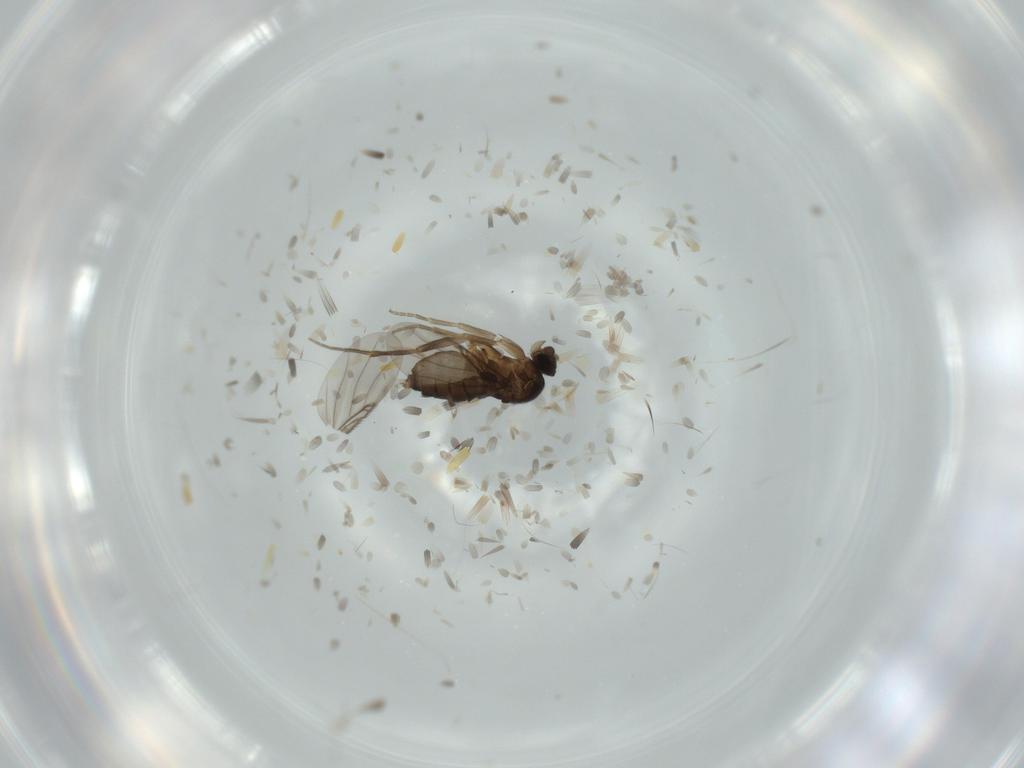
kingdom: Animalia
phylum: Arthropoda
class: Insecta
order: Diptera
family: Phoridae
